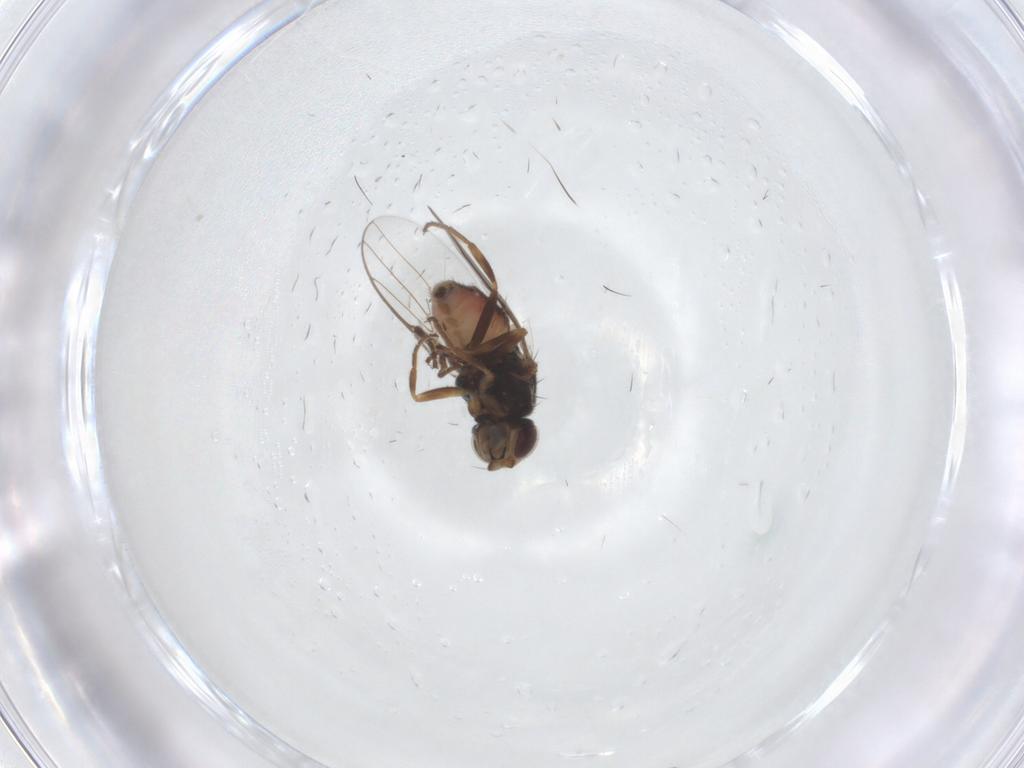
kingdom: Animalia
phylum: Arthropoda
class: Insecta
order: Diptera
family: Chloropidae
